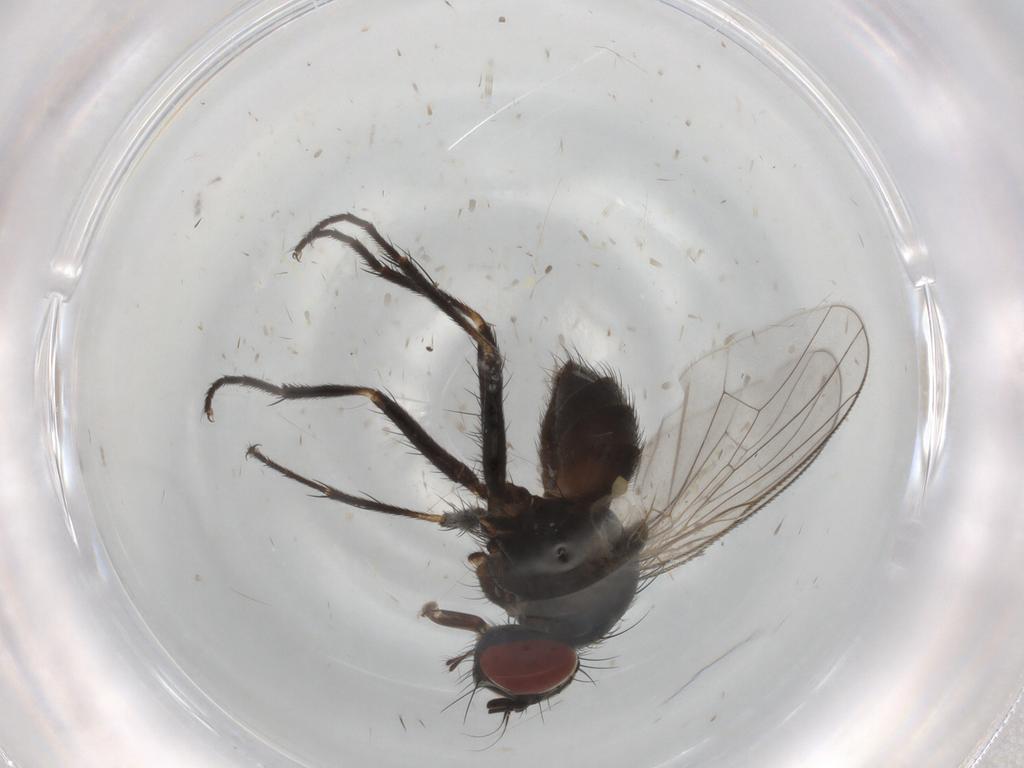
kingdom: Animalia
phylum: Arthropoda
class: Insecta
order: Diptera
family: Muscidae
